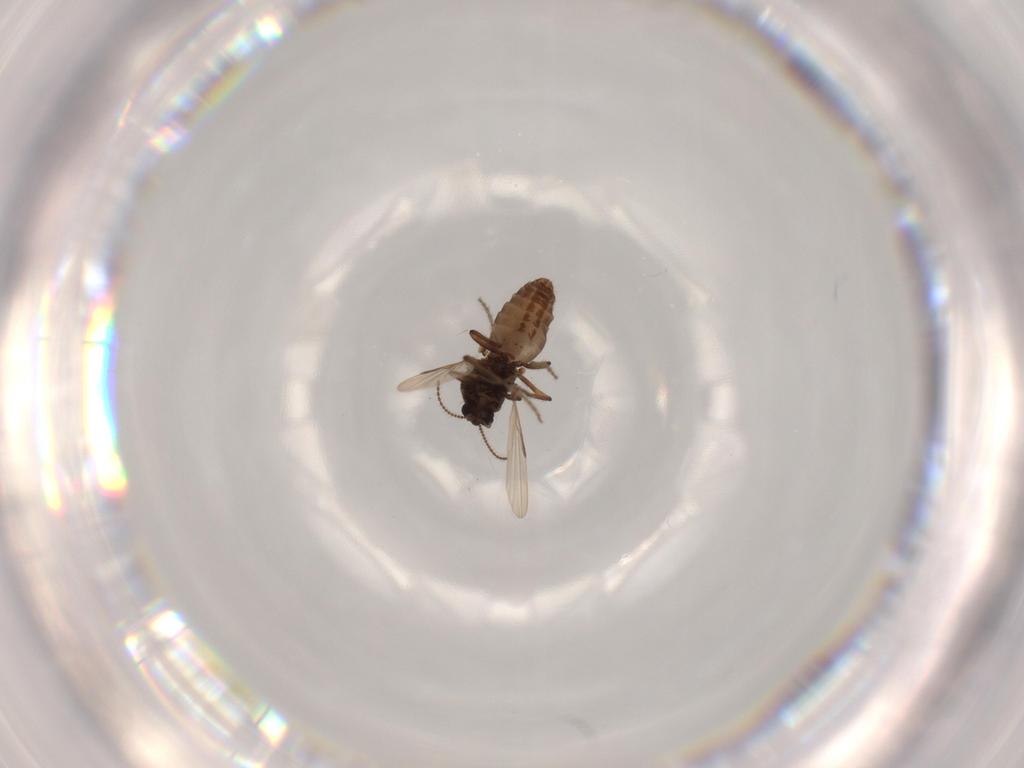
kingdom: Animalia
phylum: Arthropoda
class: Insecta
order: Diptera
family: Chironomidae
